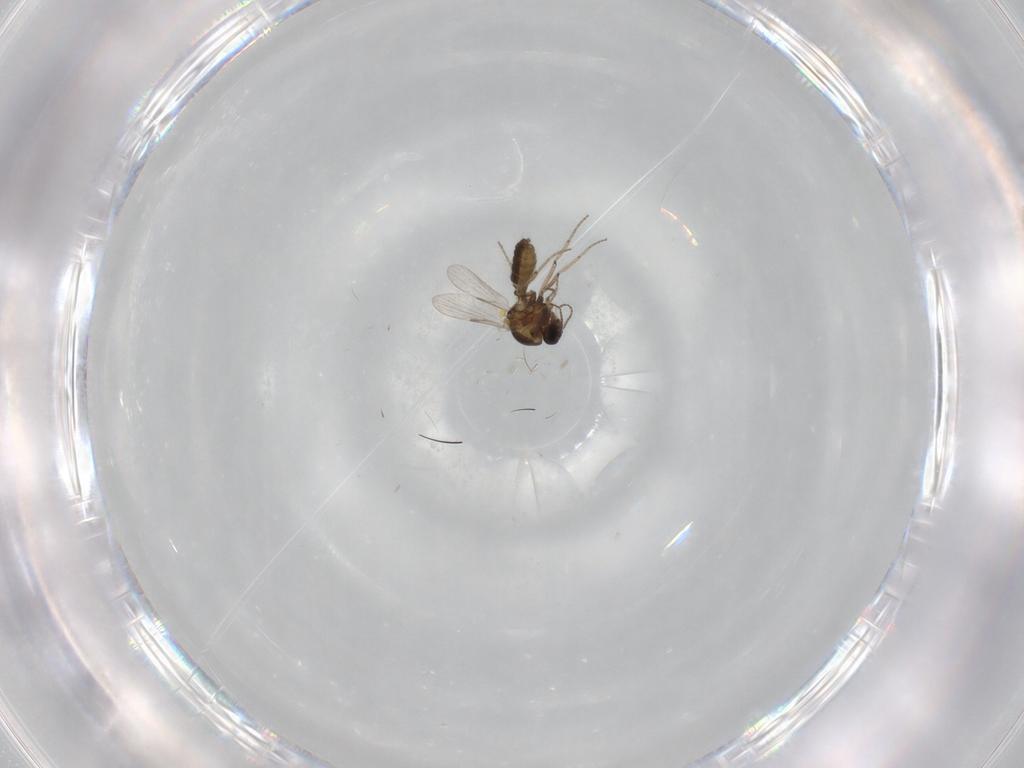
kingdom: Animalia
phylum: Arthropoda
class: Insecta
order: Diptera
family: Ceratopogonidae
